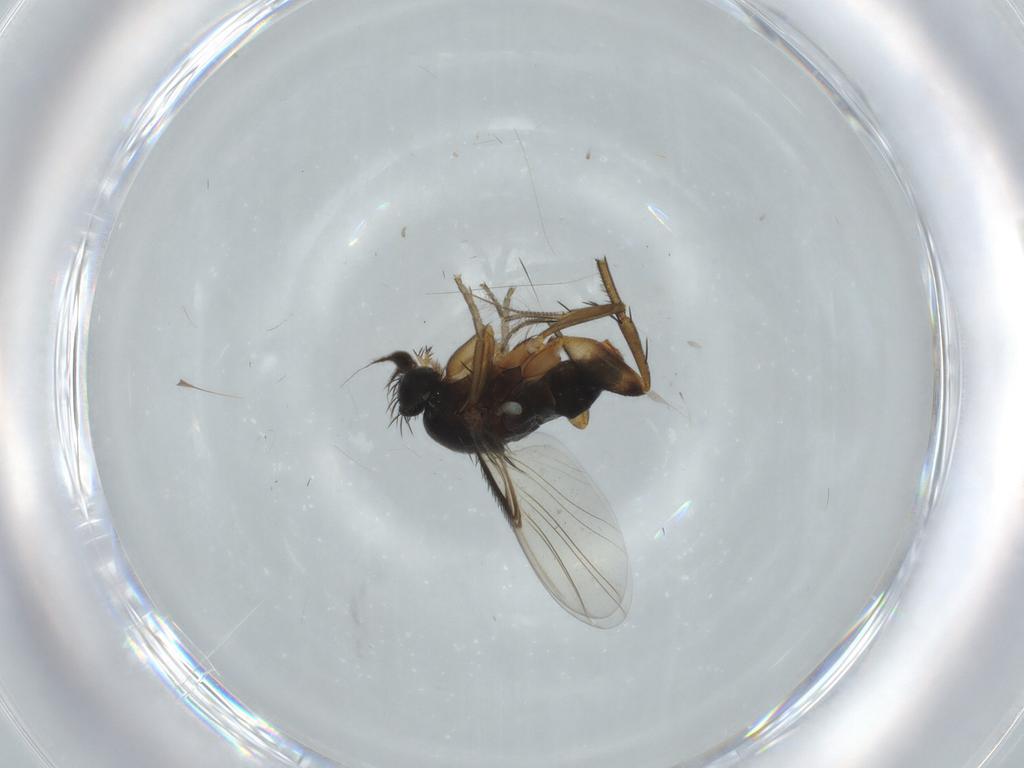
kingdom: Animalia
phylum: Arthropoda
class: Insecta
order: Diptera
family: Phoridae
